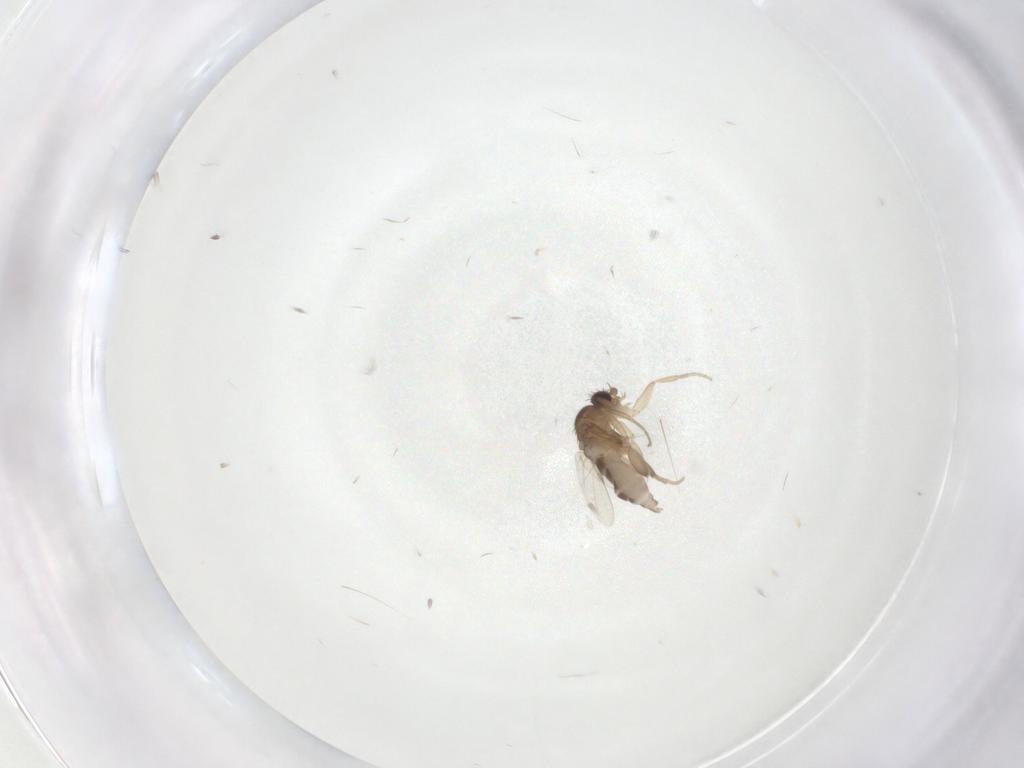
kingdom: Animalia
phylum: Arthropoda
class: Insecta
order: Diptera
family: Phoridae
